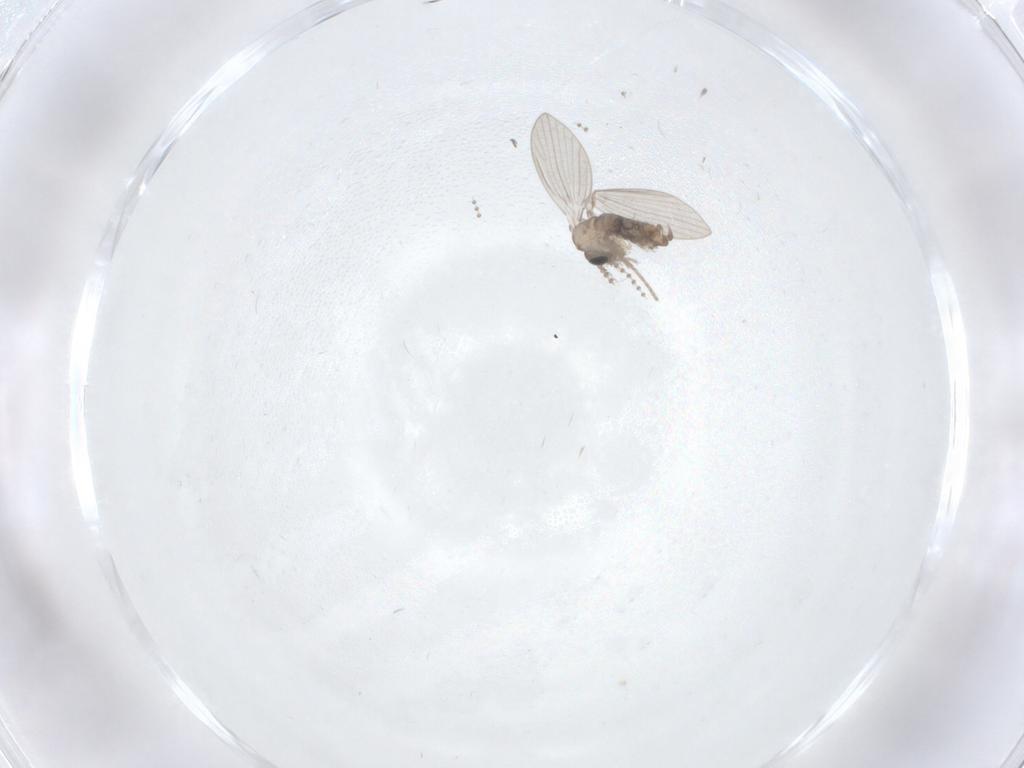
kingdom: Animalia
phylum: Arthropoda
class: Insecta
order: Diptera
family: Psychodidae
